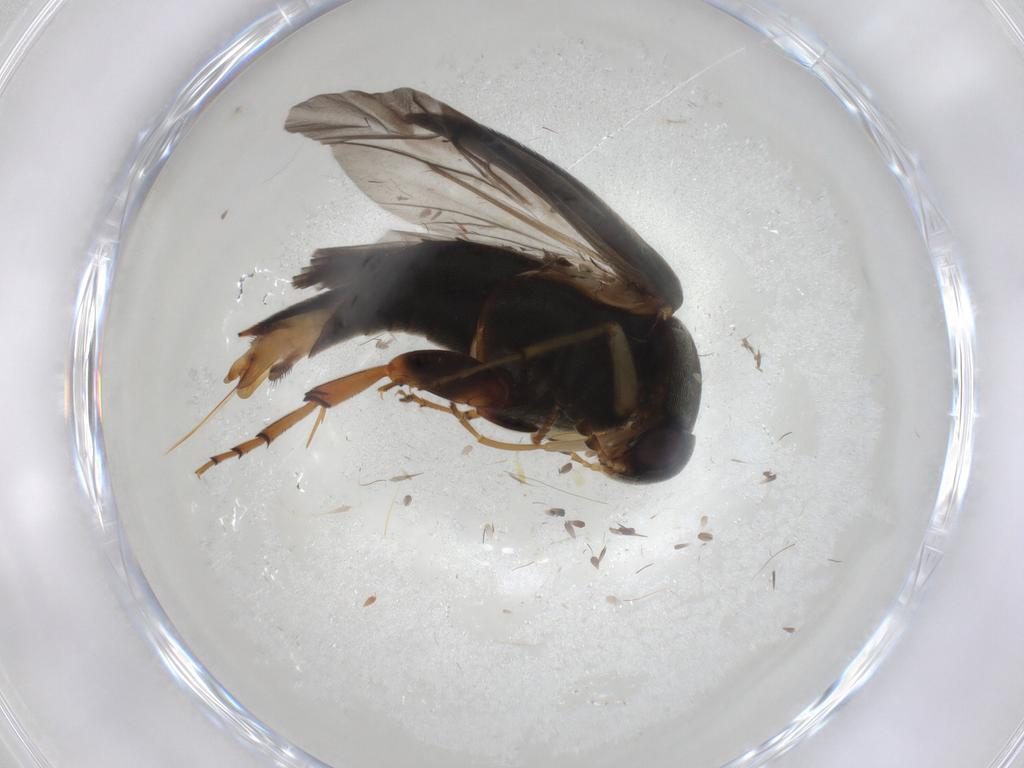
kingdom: Animalia
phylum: Arthropoda
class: Insecta
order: Coleoptera
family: Mordellidae
